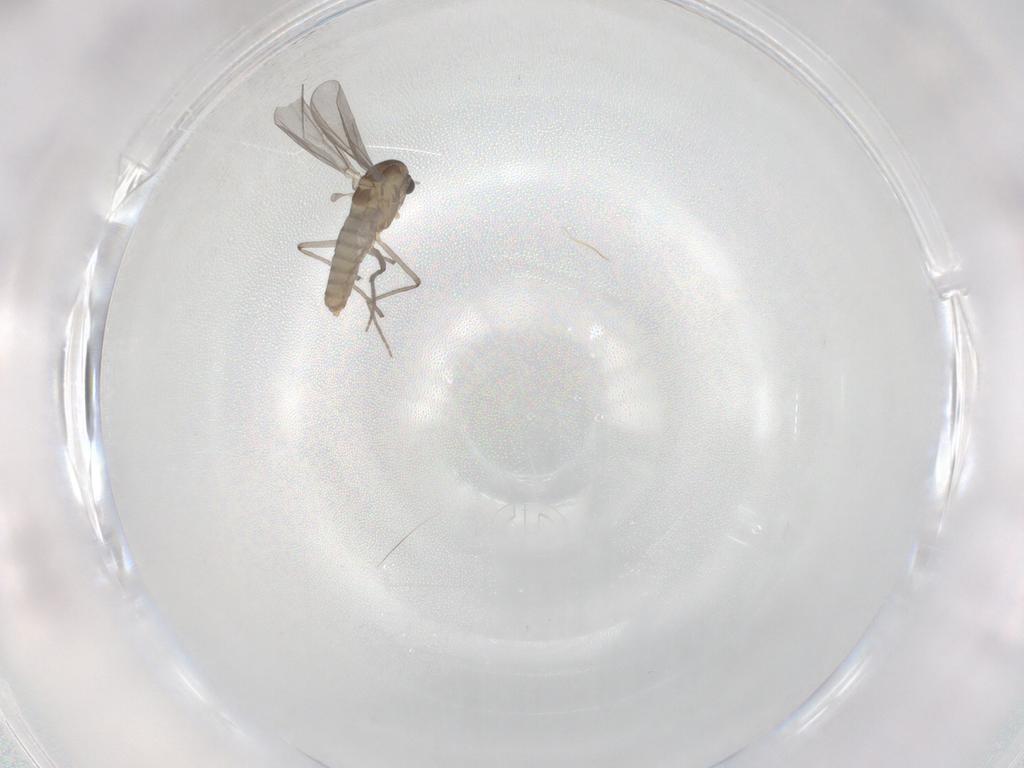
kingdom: Animalia
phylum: Arthropoda
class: Insecta
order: Diptera
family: Chironomidae
